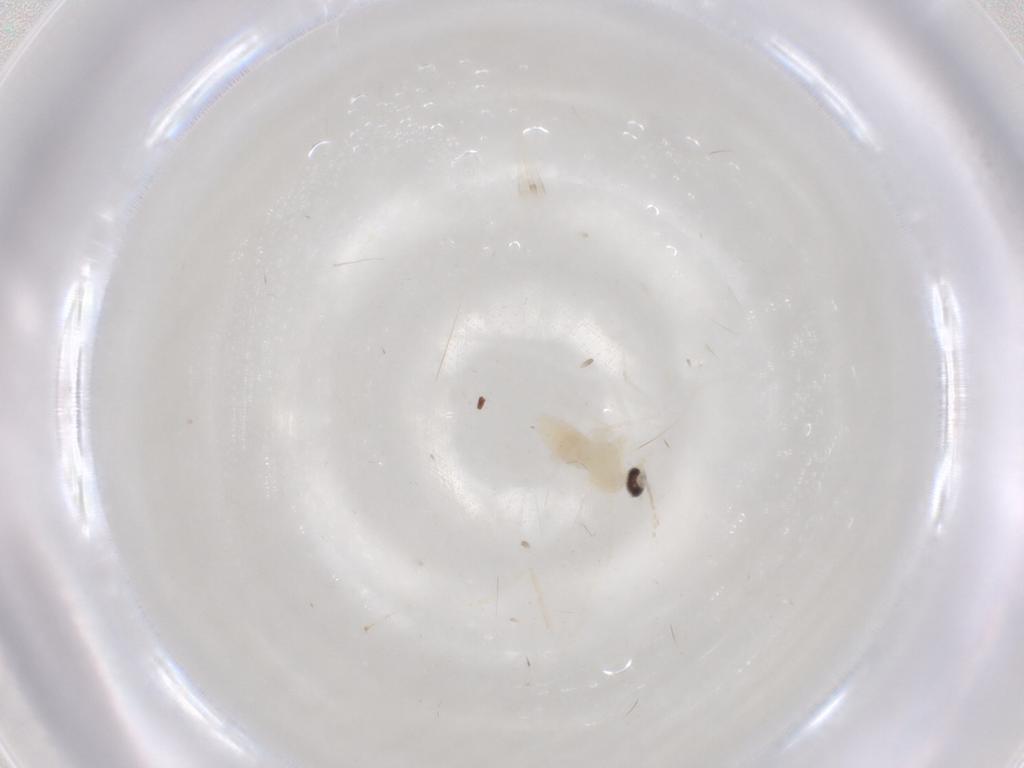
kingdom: Animalia
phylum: Arthropoda
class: Insecta
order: Diptera
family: Cecidomyiidae
